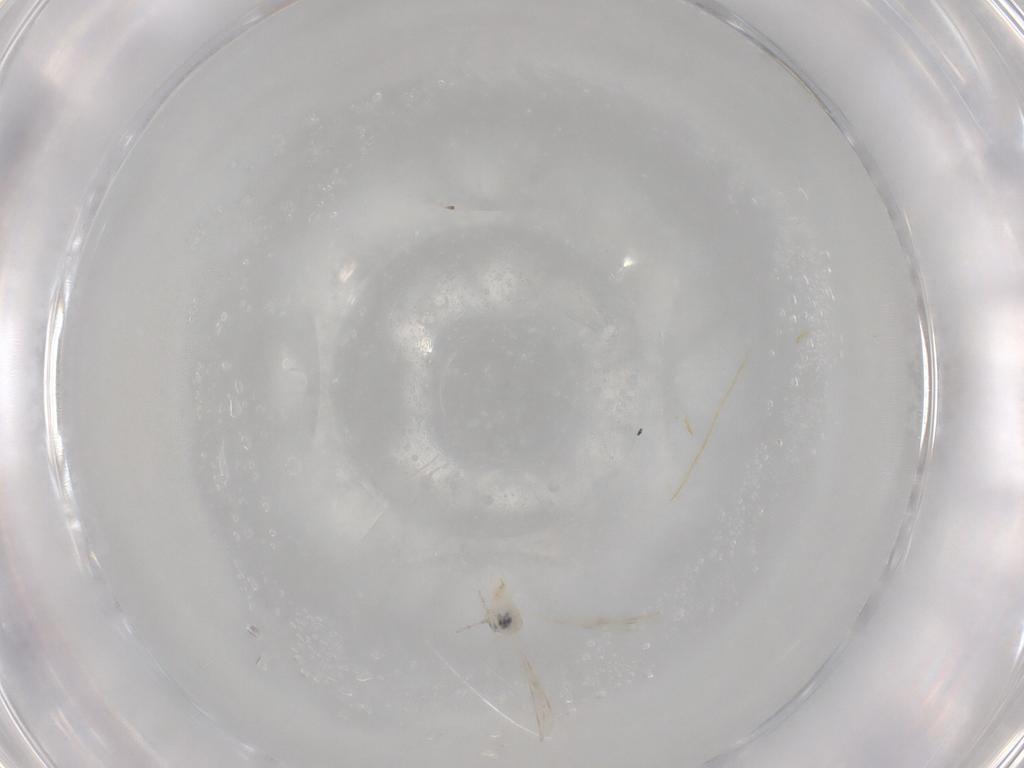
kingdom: Animalia
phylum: Arthropoda
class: Insecta
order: Diptera
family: Cecidomyiidae
